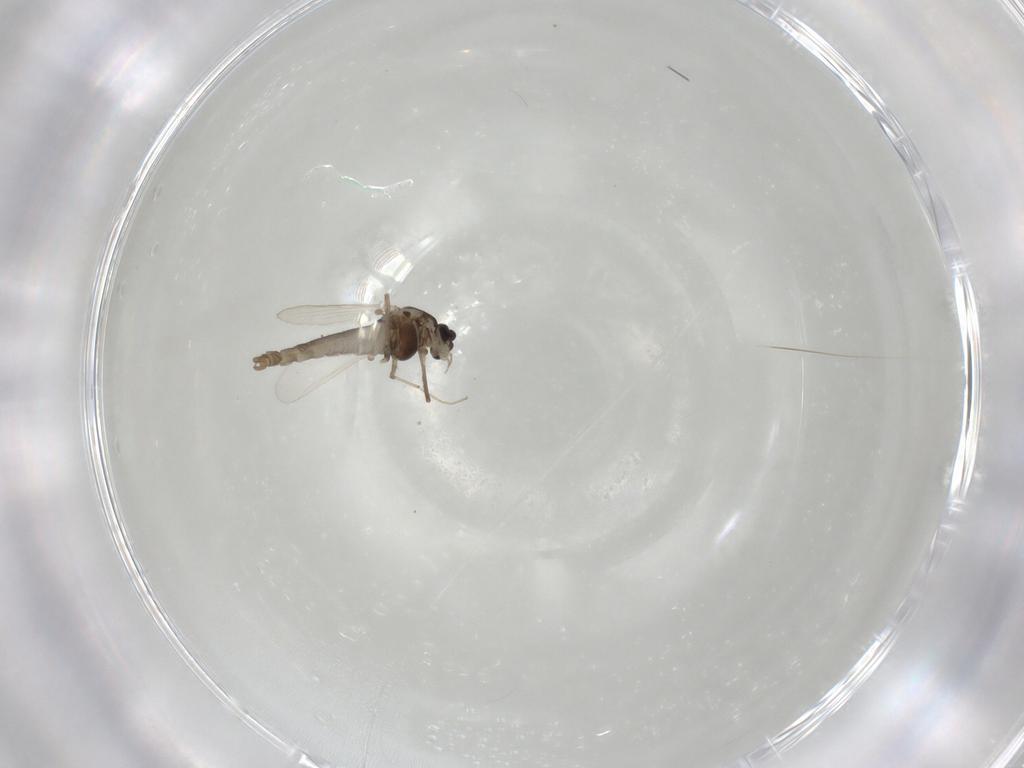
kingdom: Animalia
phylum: Arthropoda
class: Insecta
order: Diptera
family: Chironomidae
